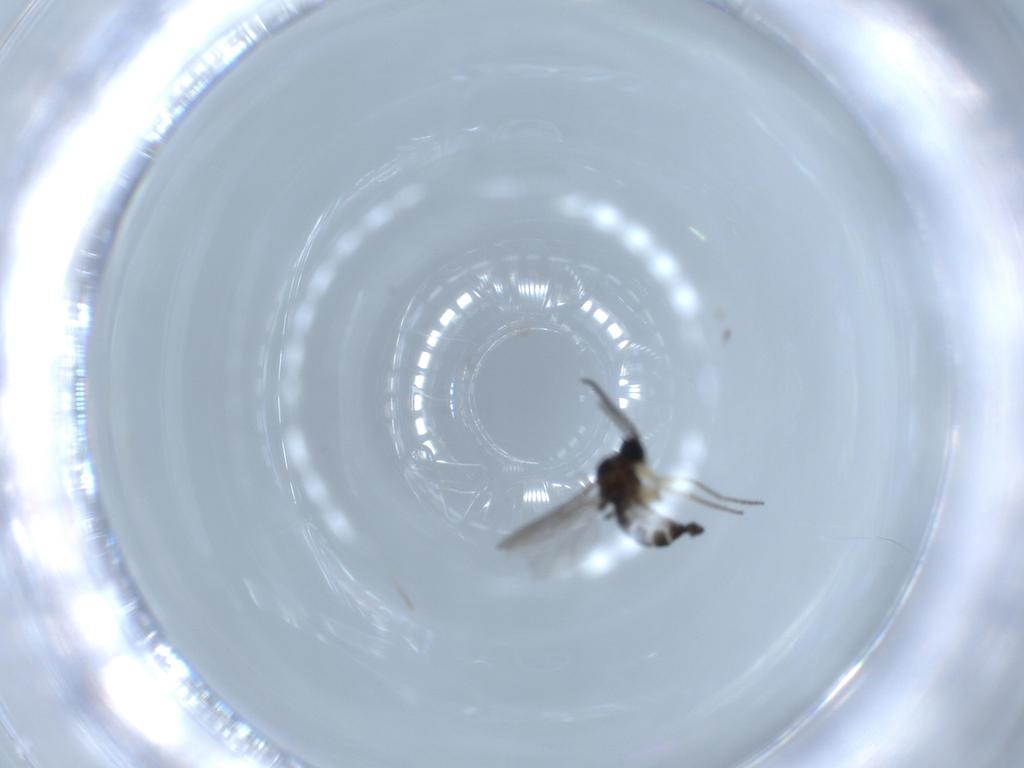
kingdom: Animalia
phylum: Arthropoda
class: Insecta
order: Diptera
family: Sciaridae
